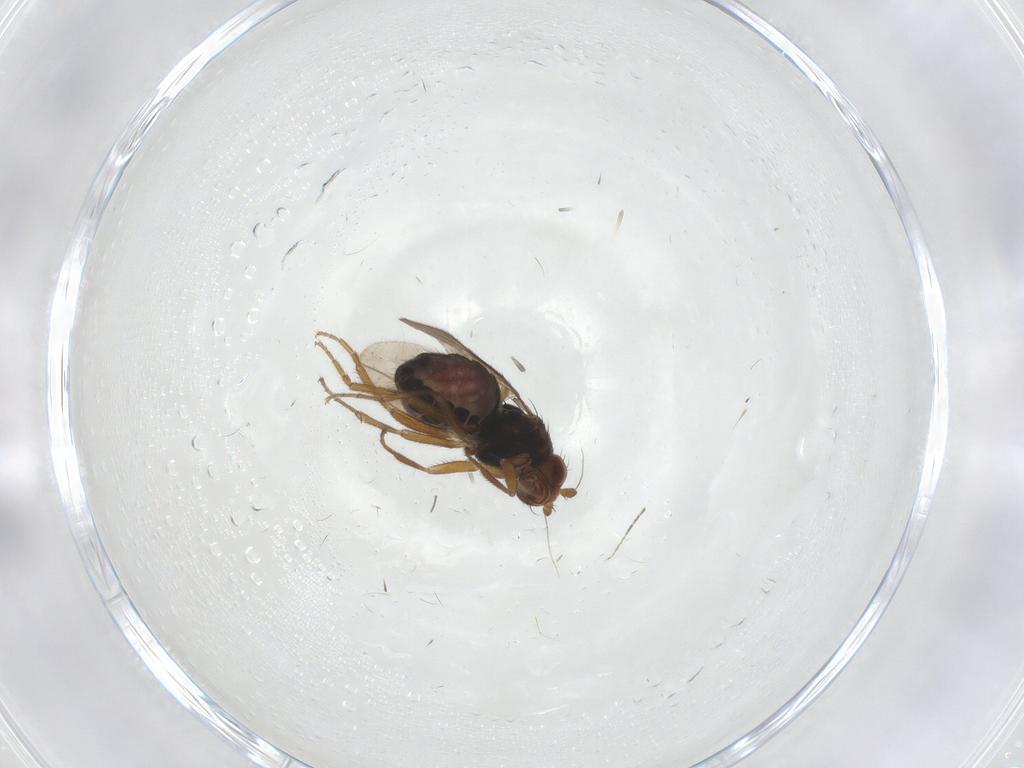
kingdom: Animalia
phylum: Arthropoda
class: Insecta
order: Diptera
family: Sphaeroceridae
